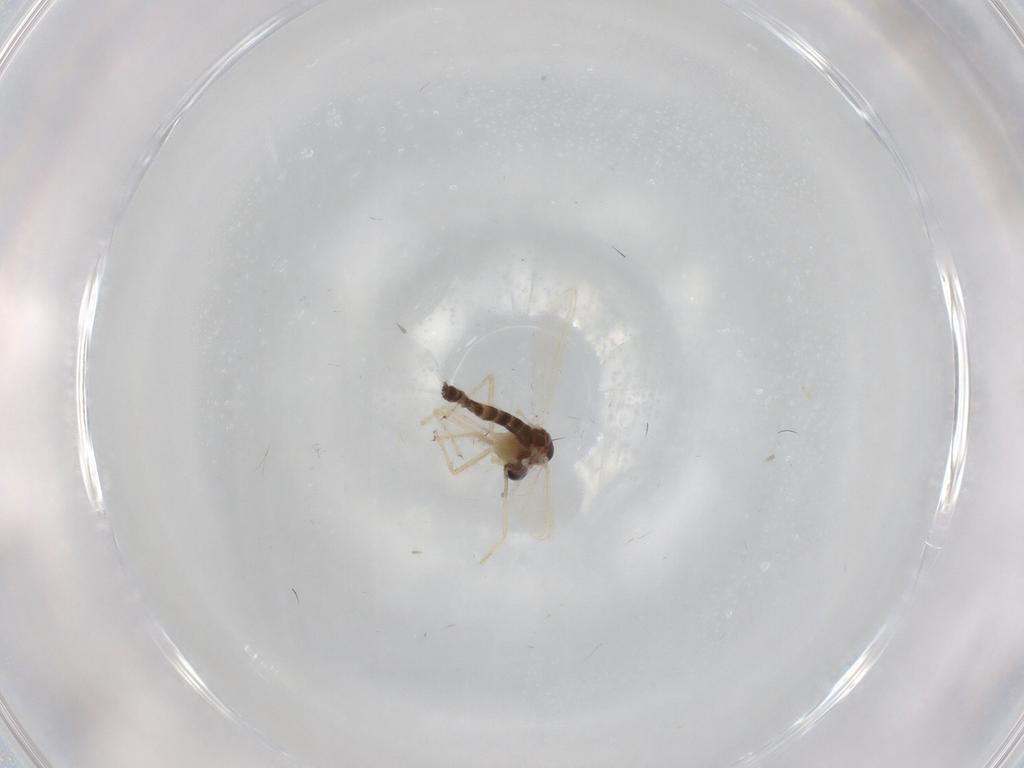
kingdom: Animalia
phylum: Arthropoda
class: Insecta
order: Diptera
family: Chironomidae
